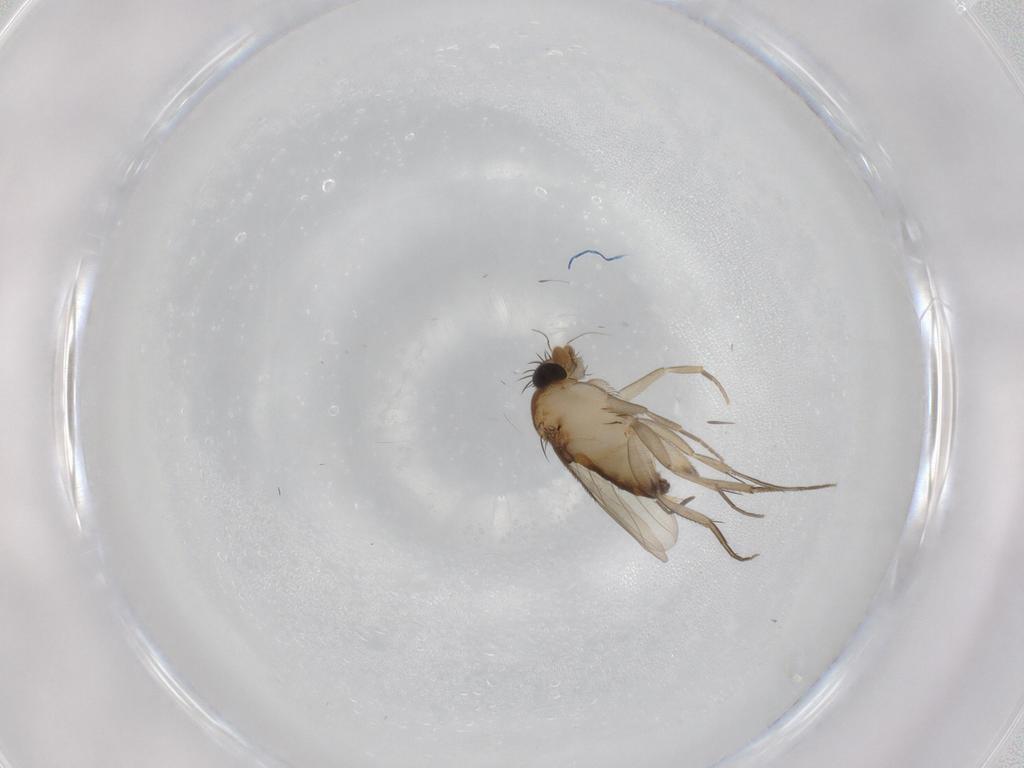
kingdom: Animalia
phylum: Arthropoda
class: Insecta
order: Diptera
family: Phoridae
